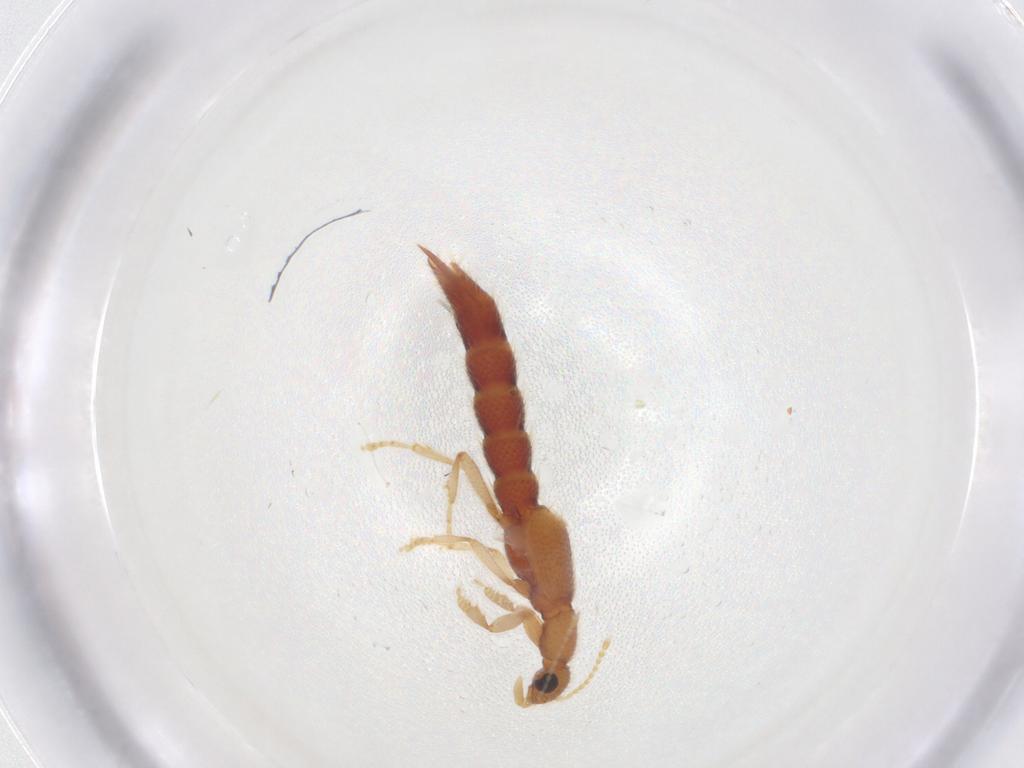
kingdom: Animalia
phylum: Arthropoda
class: Insecta
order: Coleoptera
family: Staphylinidae
